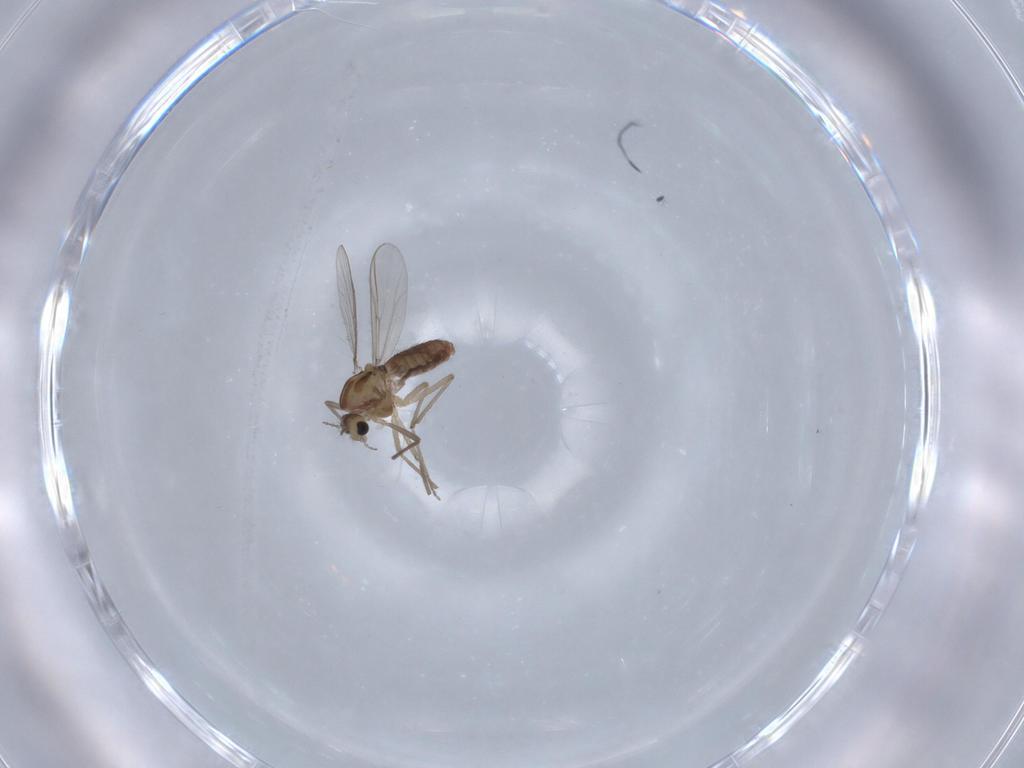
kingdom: Animalia
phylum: Arthropoda
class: Insecta
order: Diptera
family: Chironomidae
